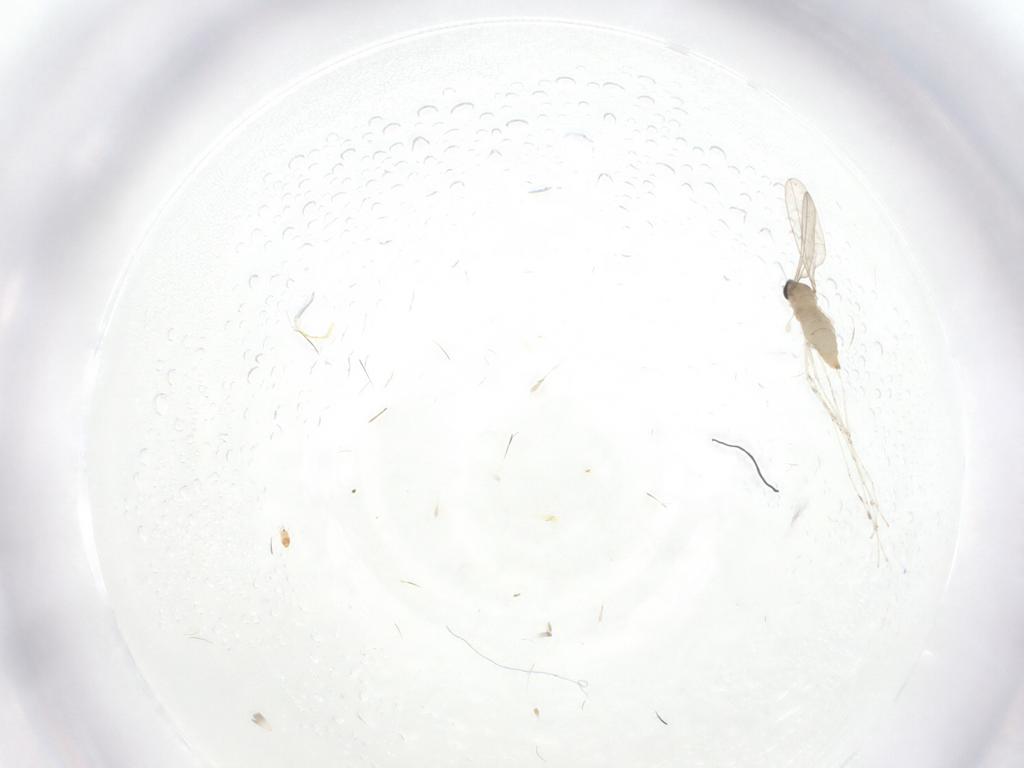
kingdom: Animalia
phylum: Arthropoda
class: Insecta
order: Diptera
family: Cecidomyiidae
